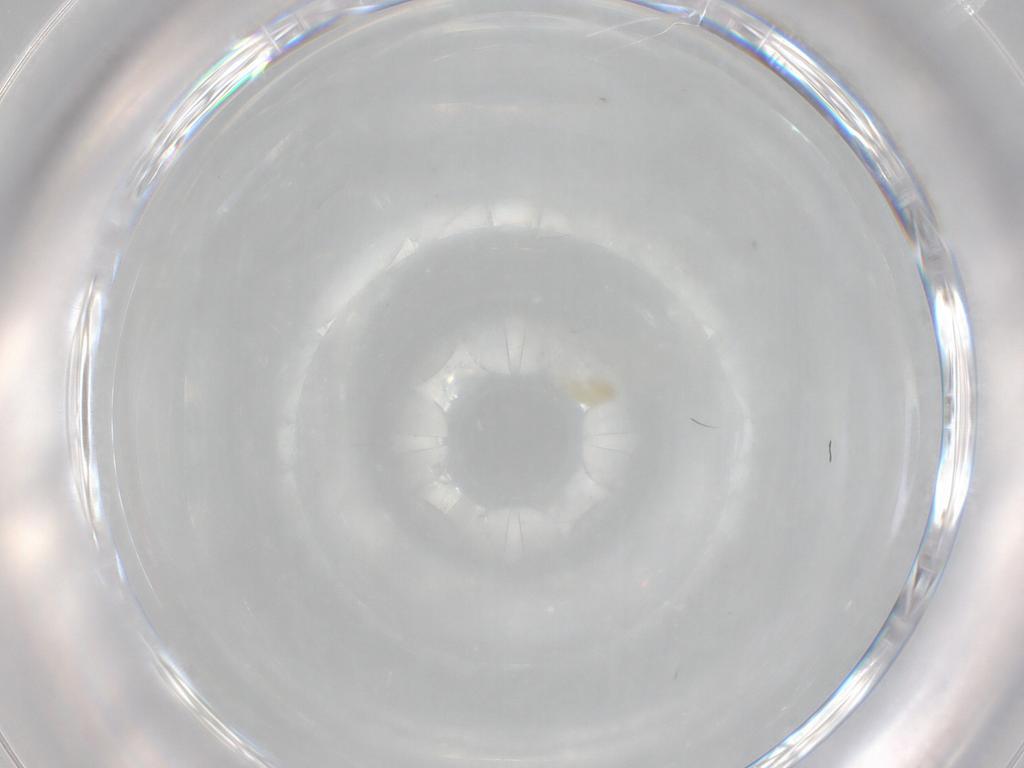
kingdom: Animalia
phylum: Arthropoda
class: Arachnida
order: Trombidiformes
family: Eupodidae
